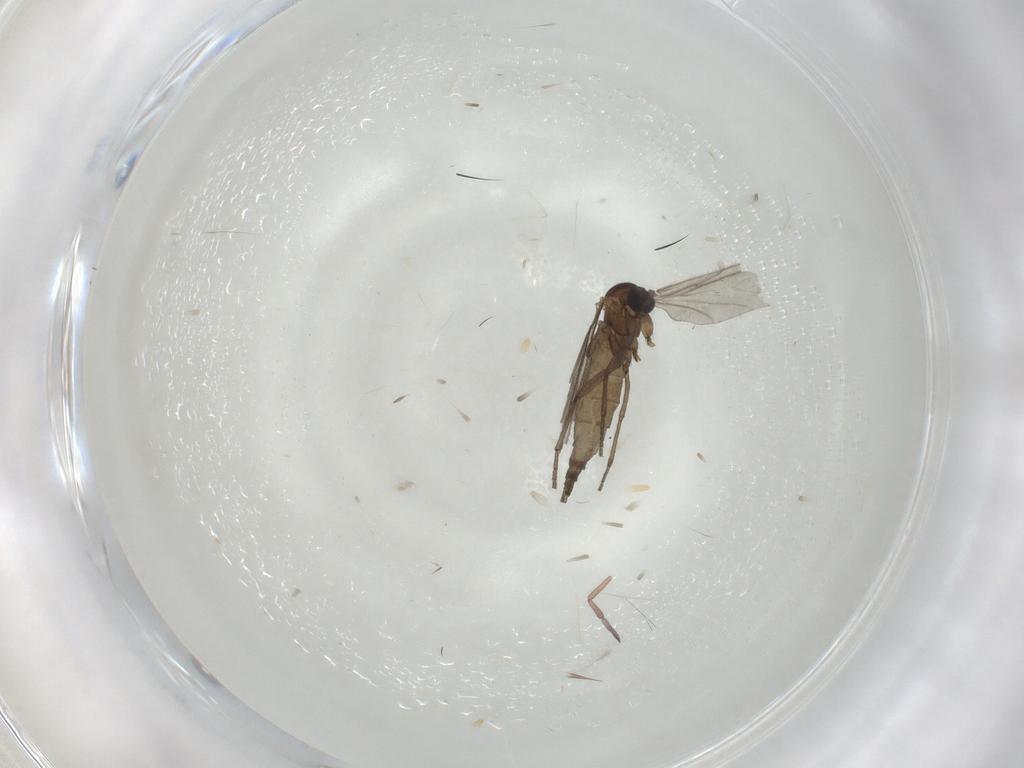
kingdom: Animalia
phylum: Arthropoda
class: Insecta
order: Diptera
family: Sciaridae
